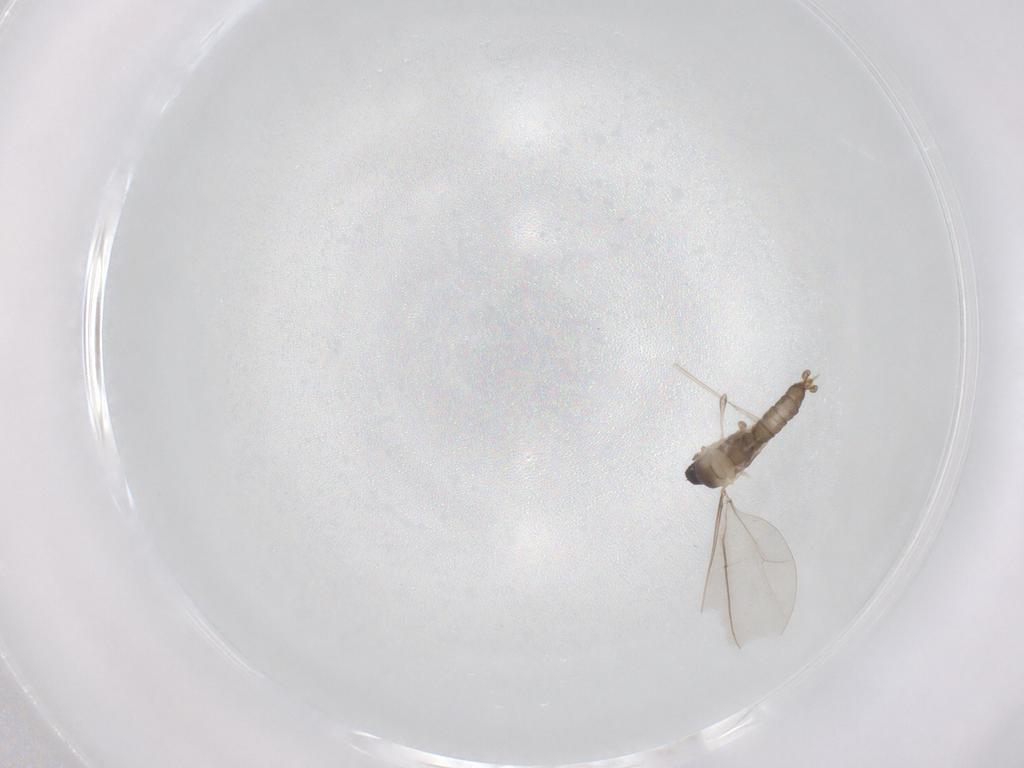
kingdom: Animalia
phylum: Arthropoda
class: Insecta
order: Diptera
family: Cecidomyiidae
